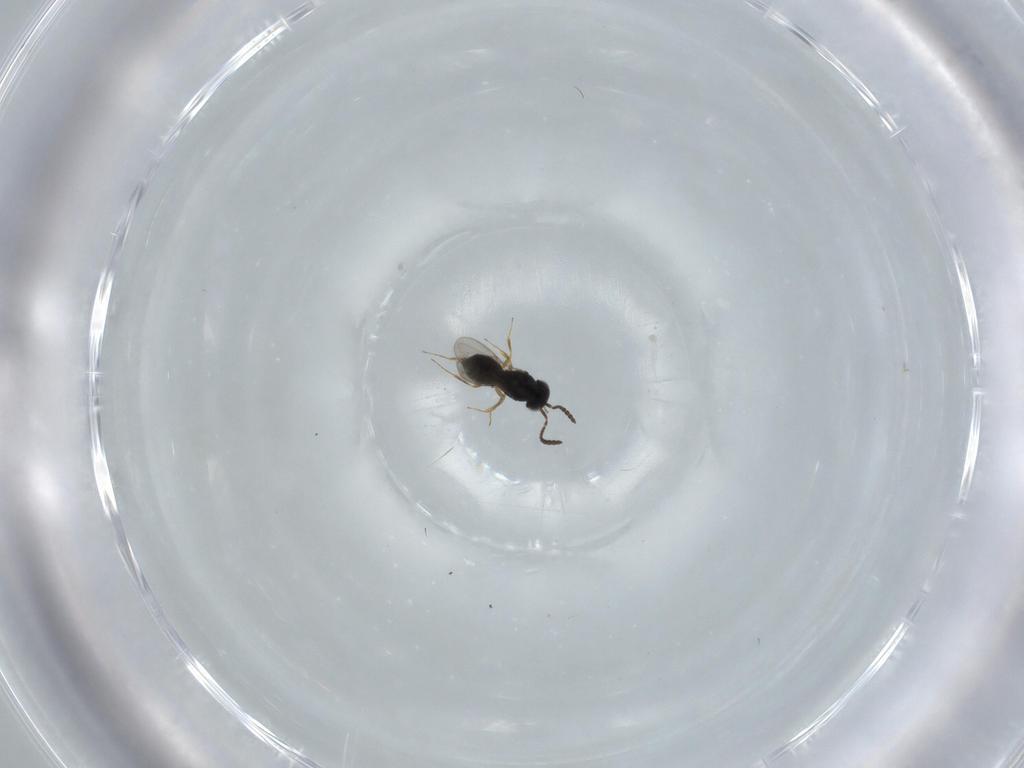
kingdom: Animalia
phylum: Arthropoda
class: Insecta
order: Hymenoptera
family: Scelionidae
